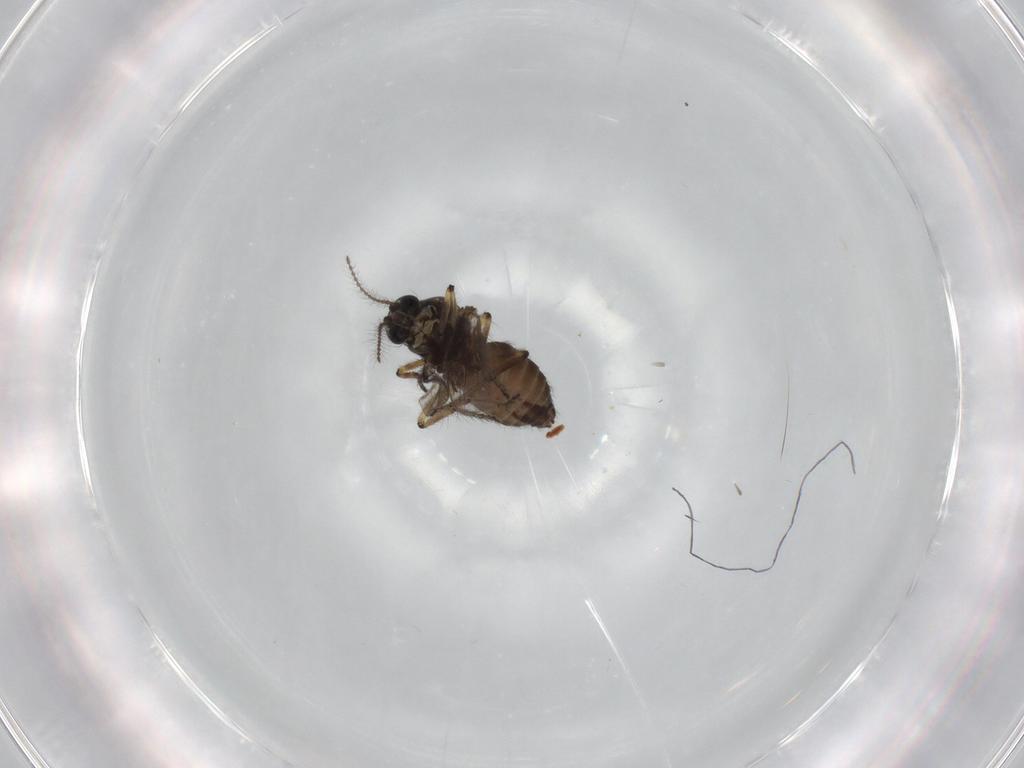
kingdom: Animalia
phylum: Arthropoda
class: Insecta
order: Diptera
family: Ceratopogonidae
